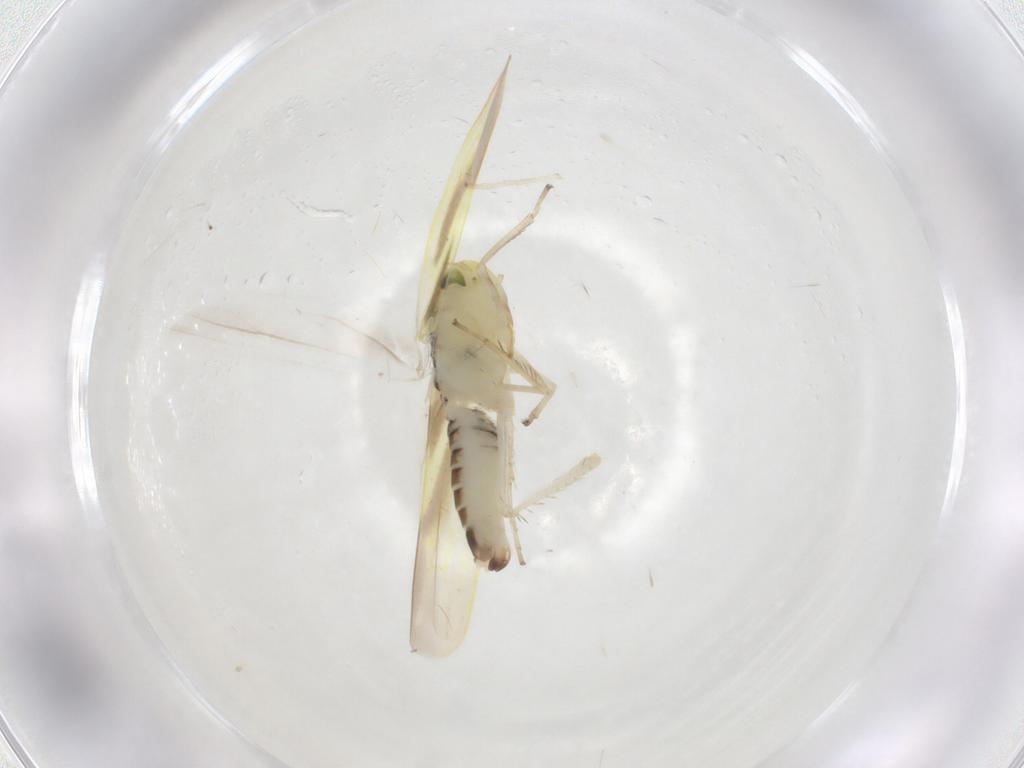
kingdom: Animalia
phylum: Arthropoda
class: Insecta
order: Hemiptera
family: Cicadellidae
